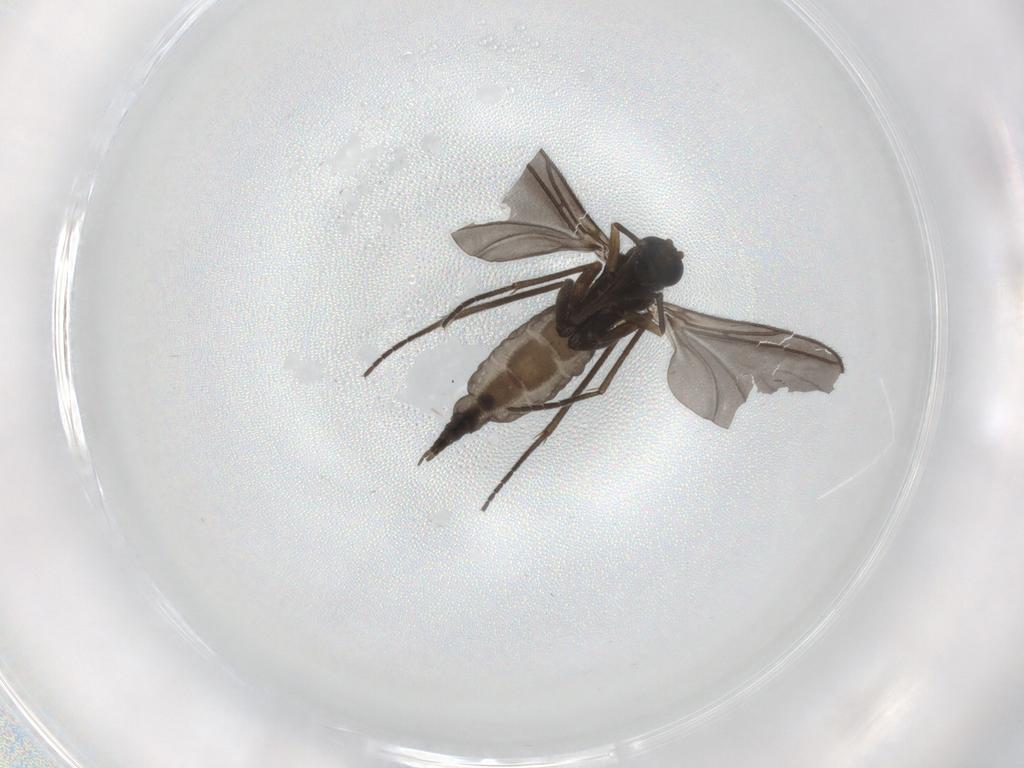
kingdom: Animalia
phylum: Arthropoda
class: Insecta
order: Diptera
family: Sciaridae
